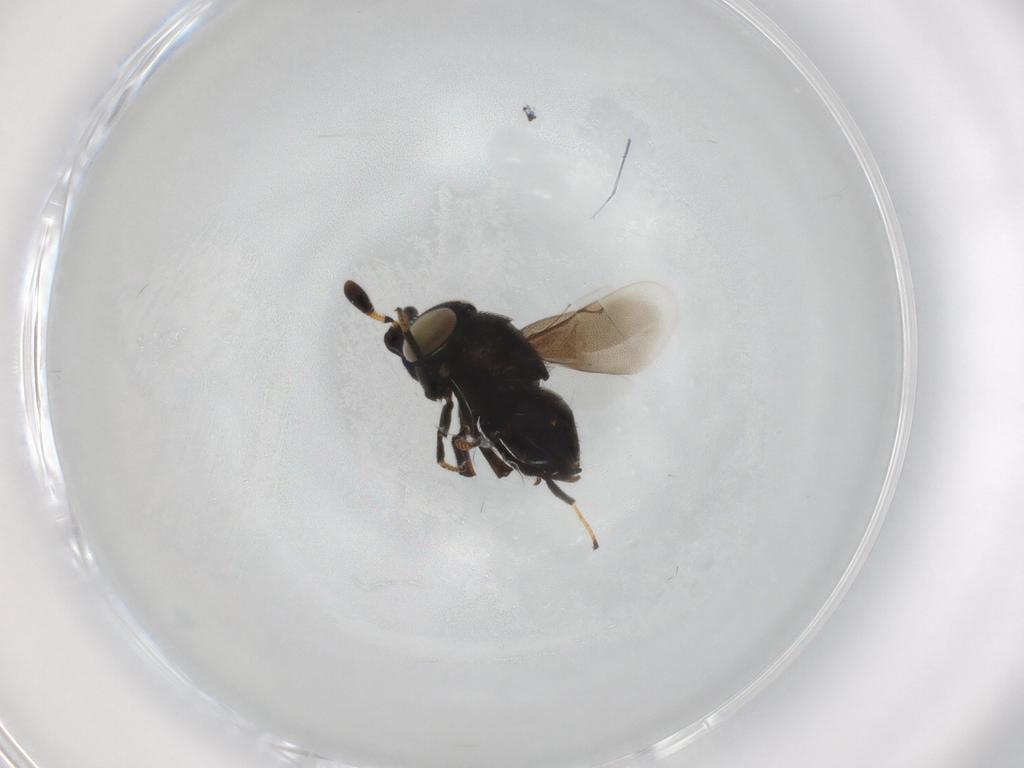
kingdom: Animalia
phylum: Arthropoda
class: Insecta
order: Hymenoptera
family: Encyrtidae
